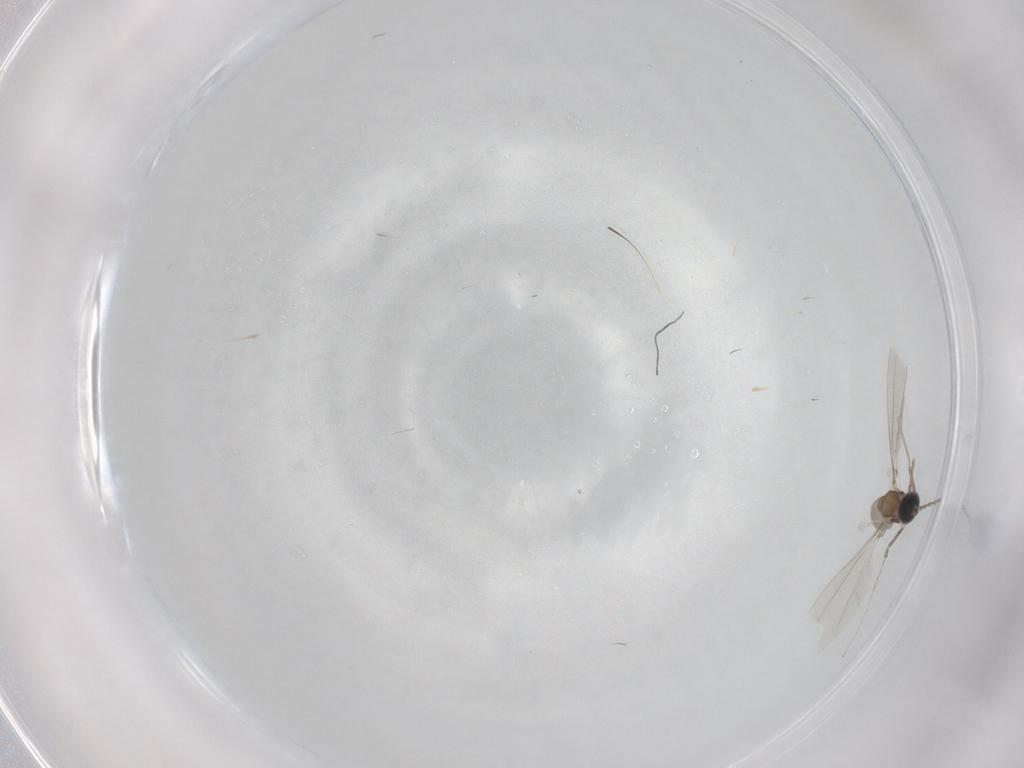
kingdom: Animalia
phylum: Arthropoda
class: Insecta
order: Diptera
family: Cecidomyiidae
